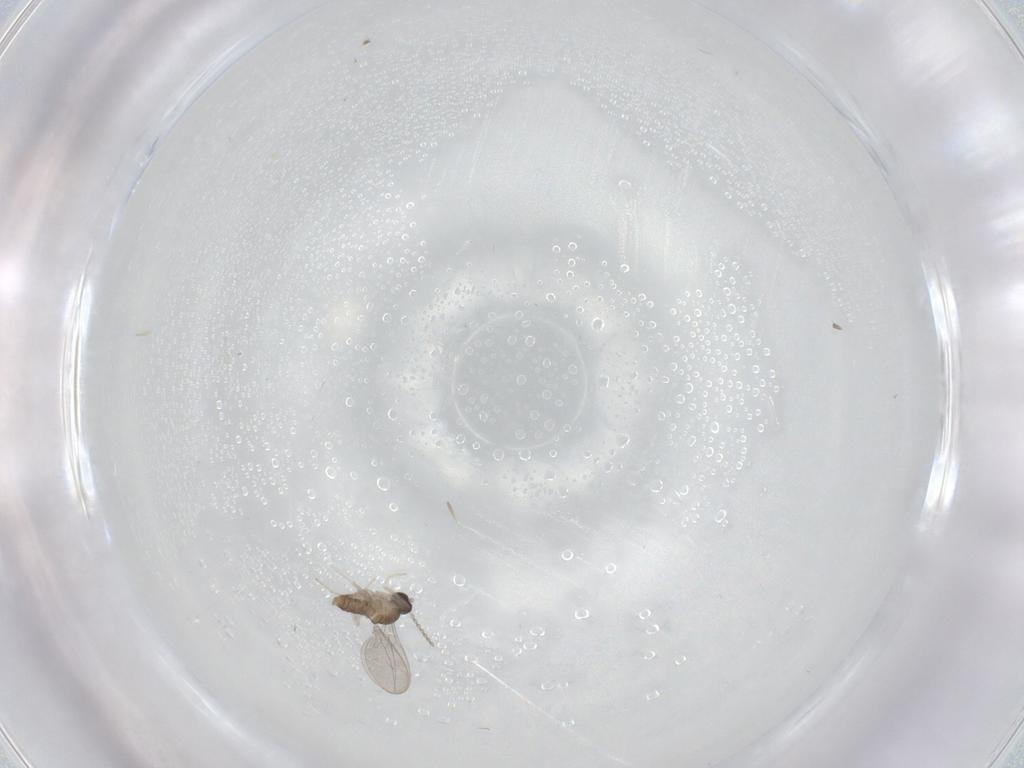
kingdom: Animalia
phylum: Arthropoda
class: Insecta
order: Diptera
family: Cecidomyiidae
